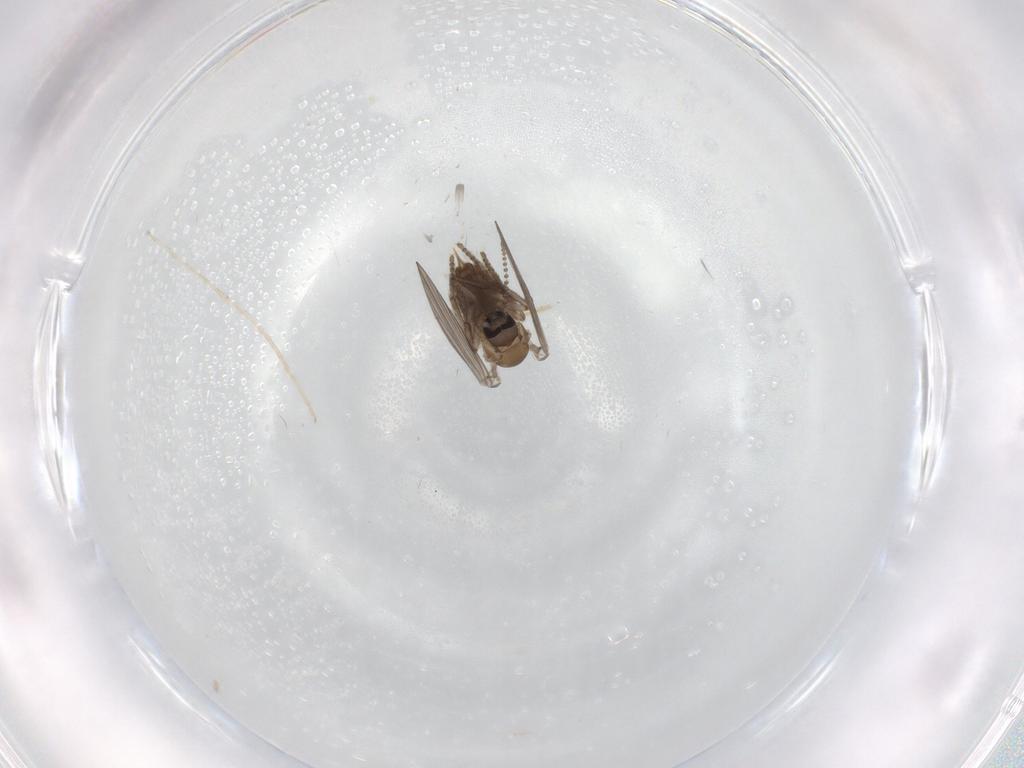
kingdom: Animalia
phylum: Arthropoda
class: Insecta
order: Diptera
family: Chironomidae
